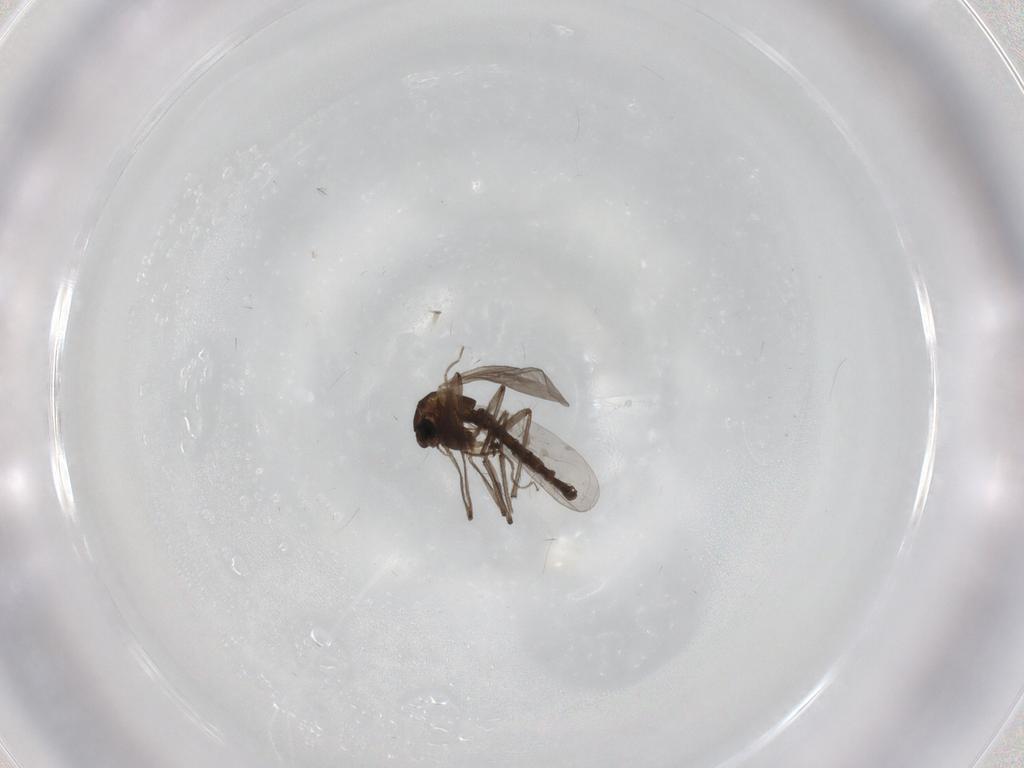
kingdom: Animalia
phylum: Arthropoda
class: Insecta
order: Diptera
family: Chironomidae
